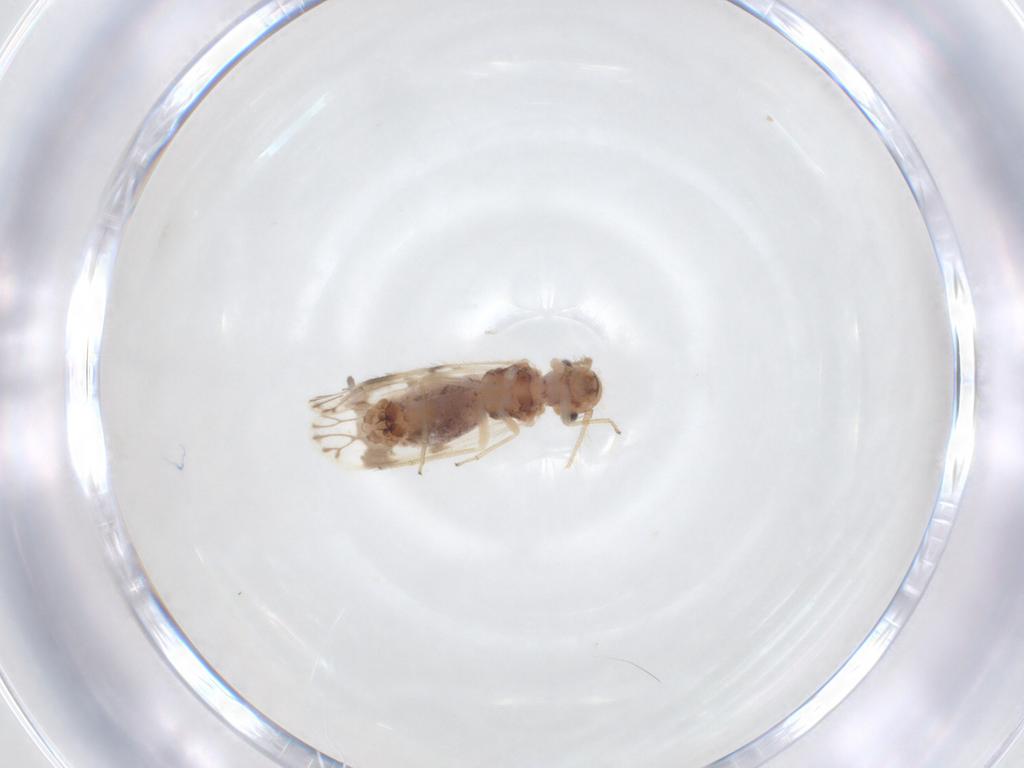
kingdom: Animalia
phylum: Arthropoda
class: Insecta
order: Psocodea
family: Pseudocaeciliidae
